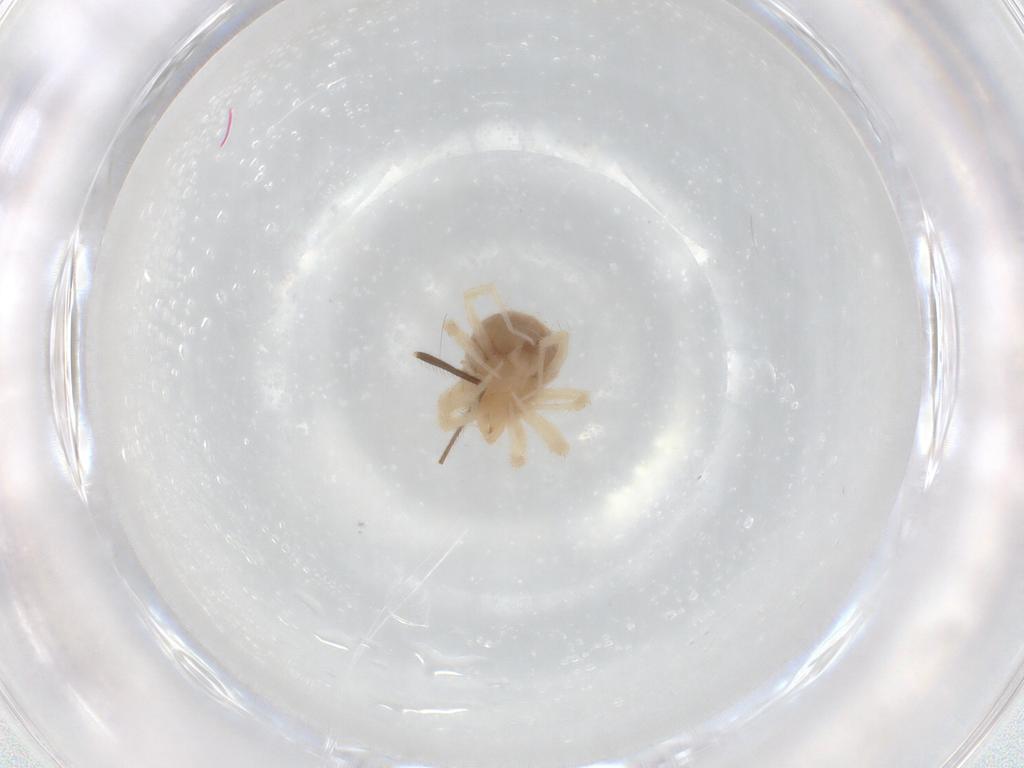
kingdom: Animalia
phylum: Arthropoda
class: Arachnida
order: Trombidiformes
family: Anystidae
